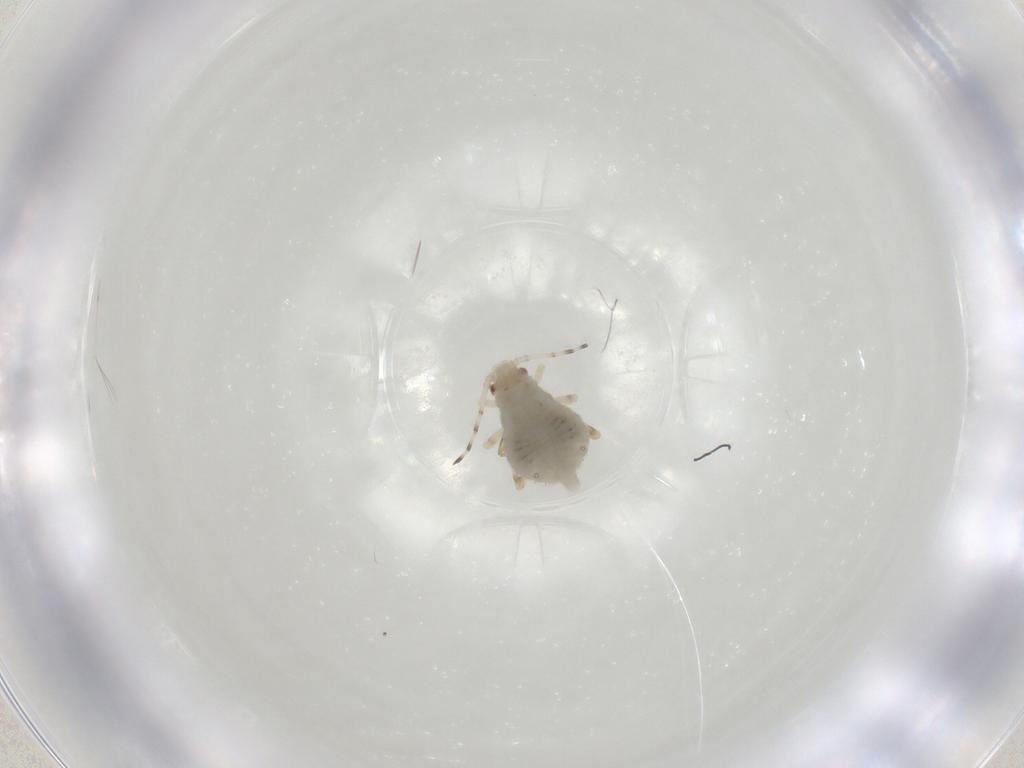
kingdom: Animalia
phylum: Arthropoda
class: Insecta
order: Hemiptera
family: Aphididae
